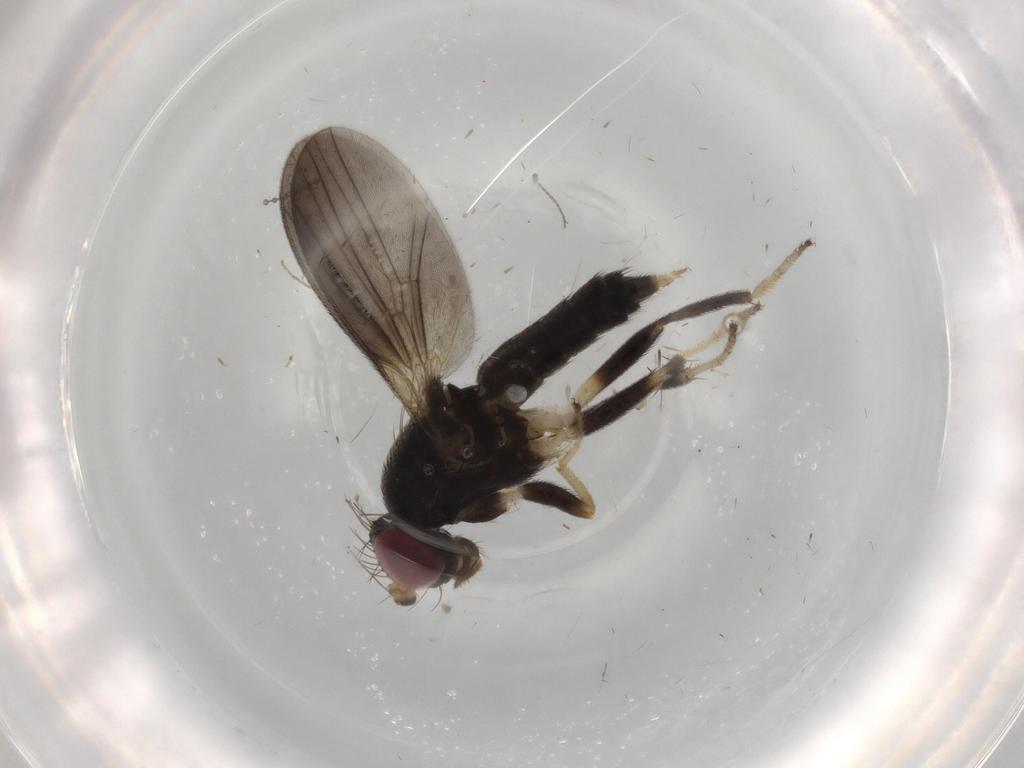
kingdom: Animalia
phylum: Arthropoda
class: Insecta
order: Diptera
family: Clusiidae
